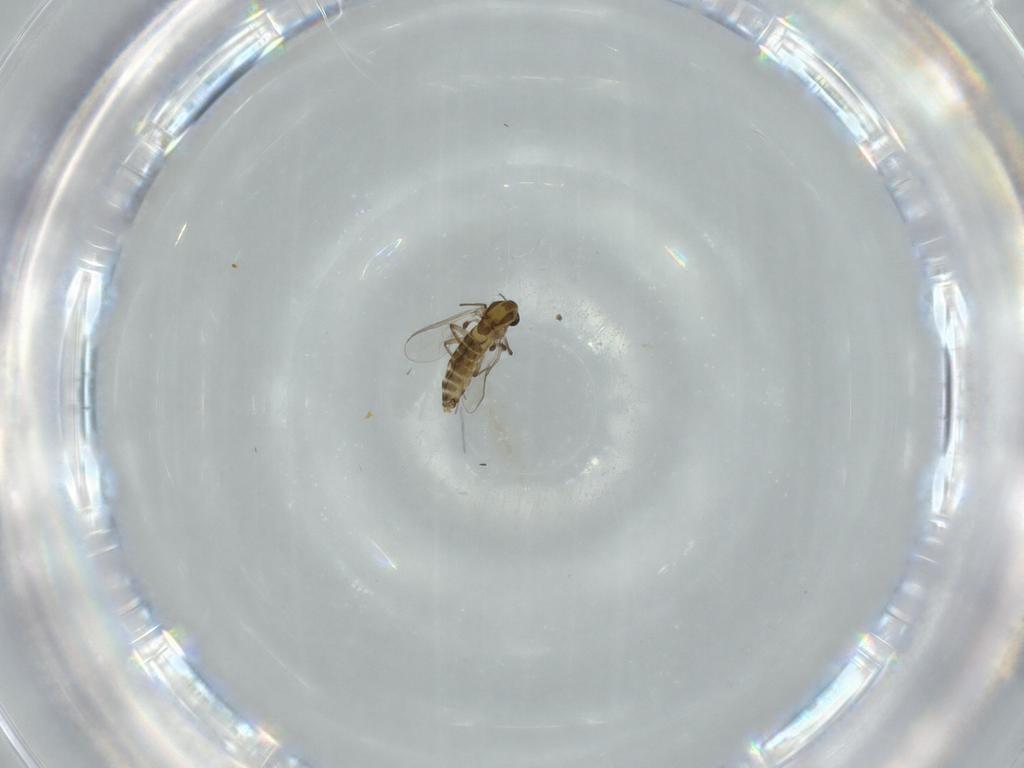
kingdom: Animalia
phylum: Arthropoda
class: Insecta
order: Diptera
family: Chironomidae
